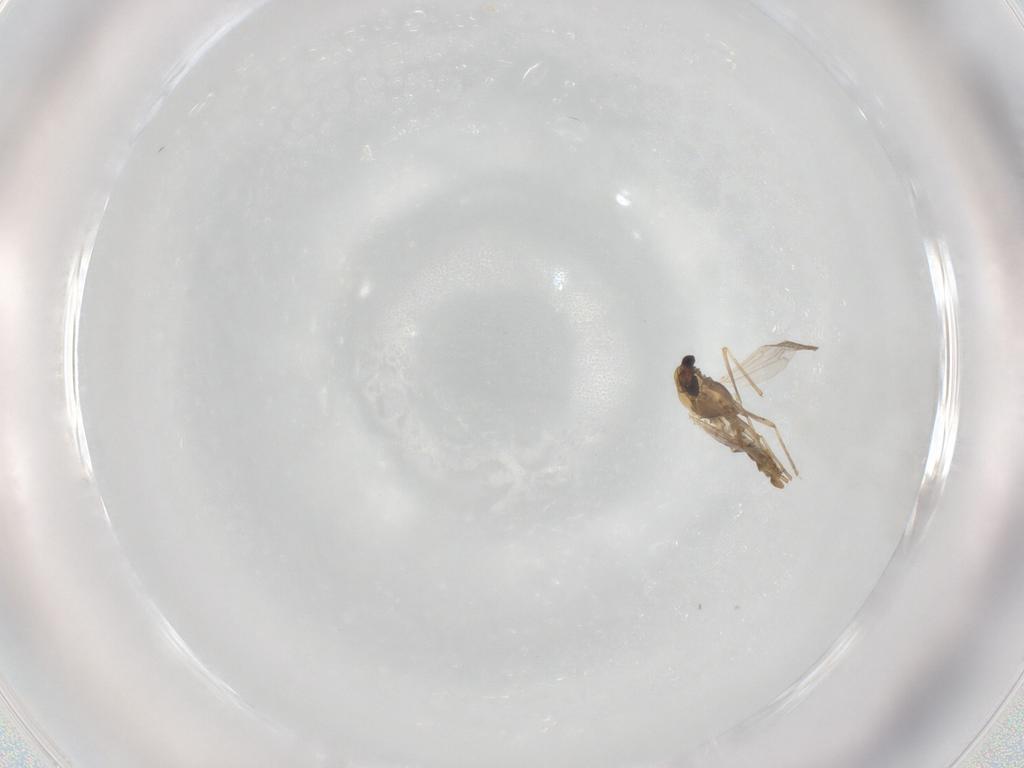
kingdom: Animalia
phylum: Arthropoda
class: Insecta
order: Diptera
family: Chironomidae
